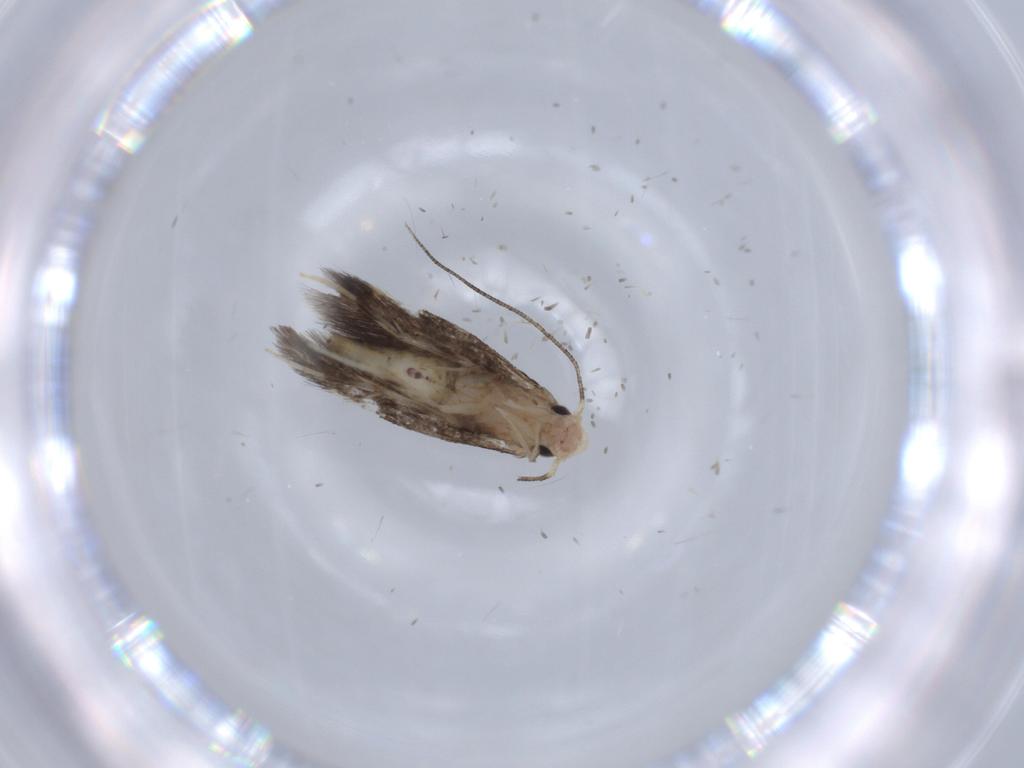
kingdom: Animalia
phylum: Arthropoda
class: Insecta
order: Lepidoptera
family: Nepticulidae
